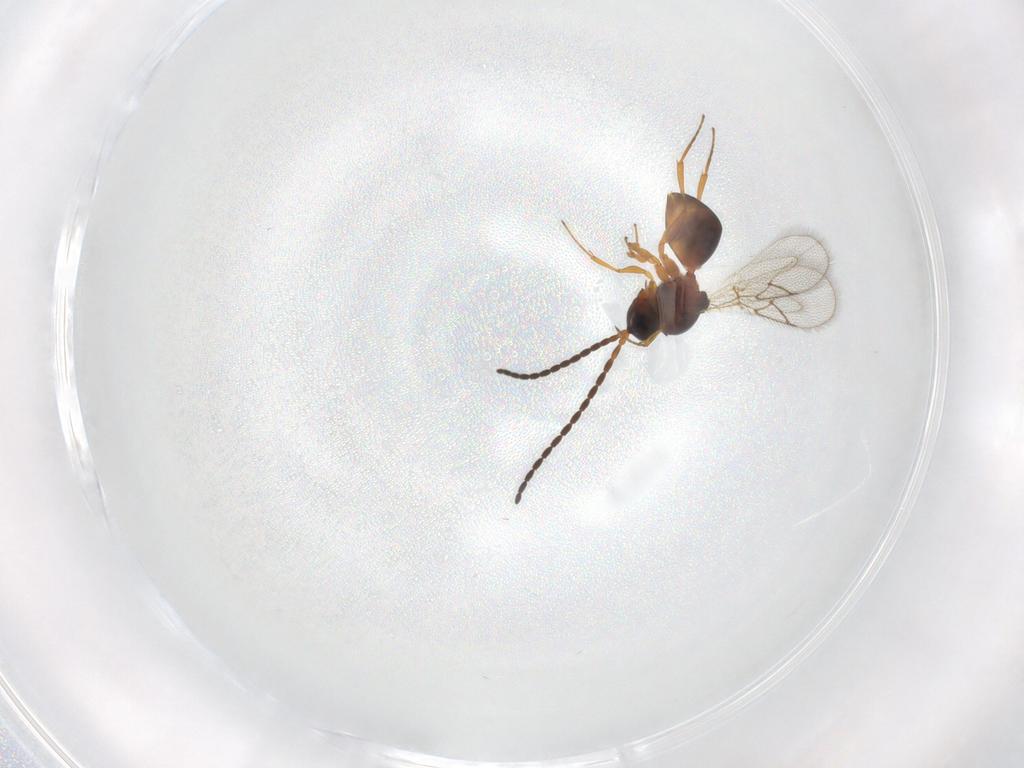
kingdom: Animalia
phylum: Arthropoda
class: Insecta
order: Hymenoptera
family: Figitidae
